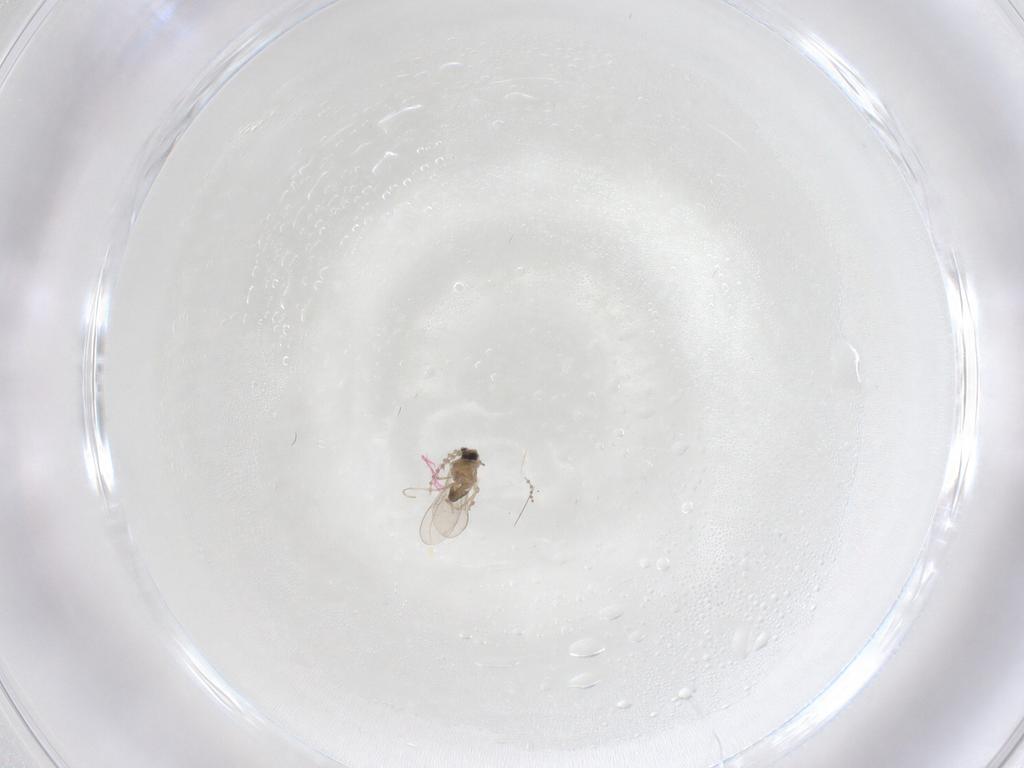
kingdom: Animalia
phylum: Arthropoda
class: Insecta
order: Diptera
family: Cecidomyiidae
